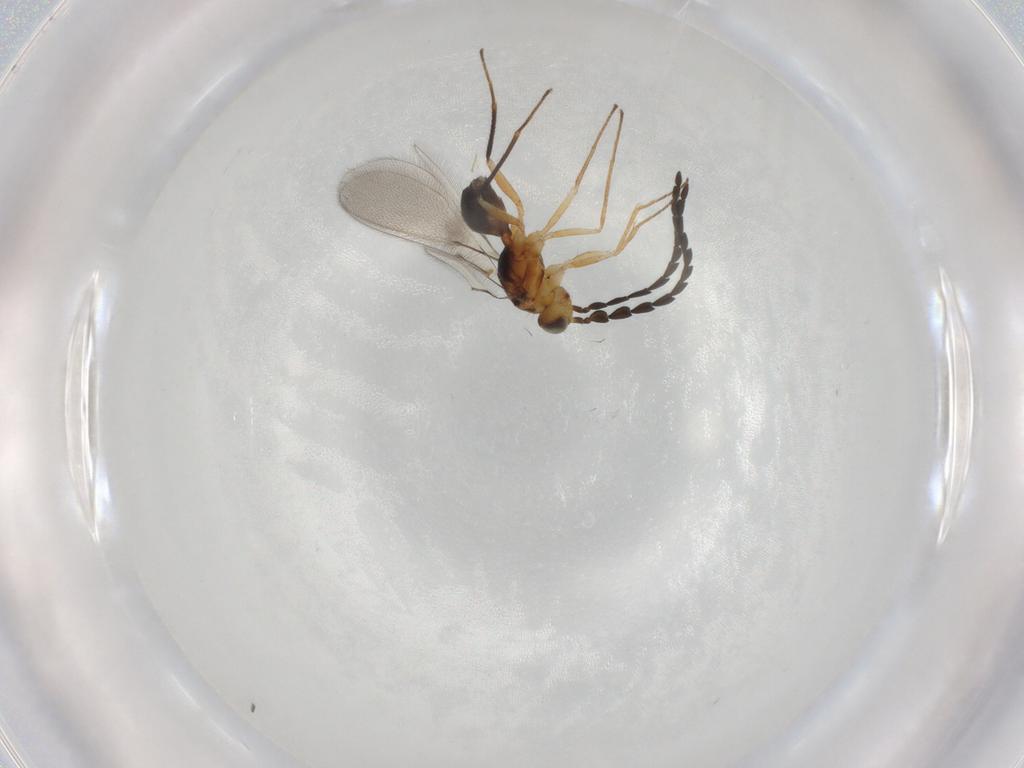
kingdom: Animalia
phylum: Arthropoda
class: Insecta
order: Hymenoptera
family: Mymaridae
